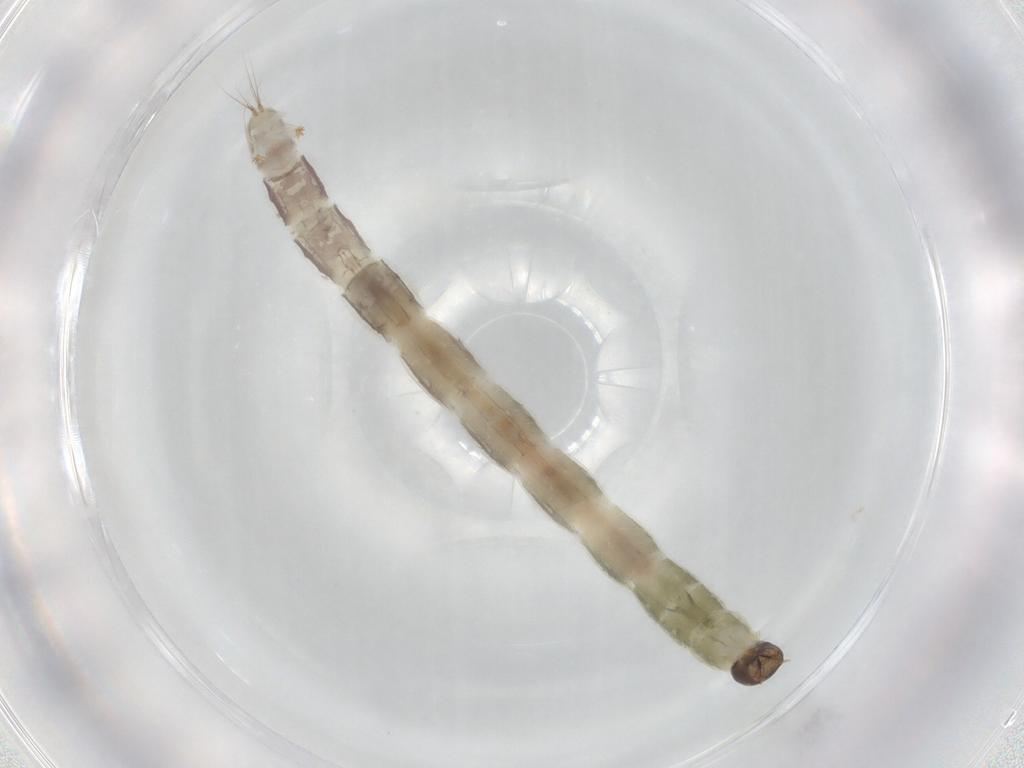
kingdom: Animalia
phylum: Arthropoda
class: Insecta
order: Diptera
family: Chironomidae
